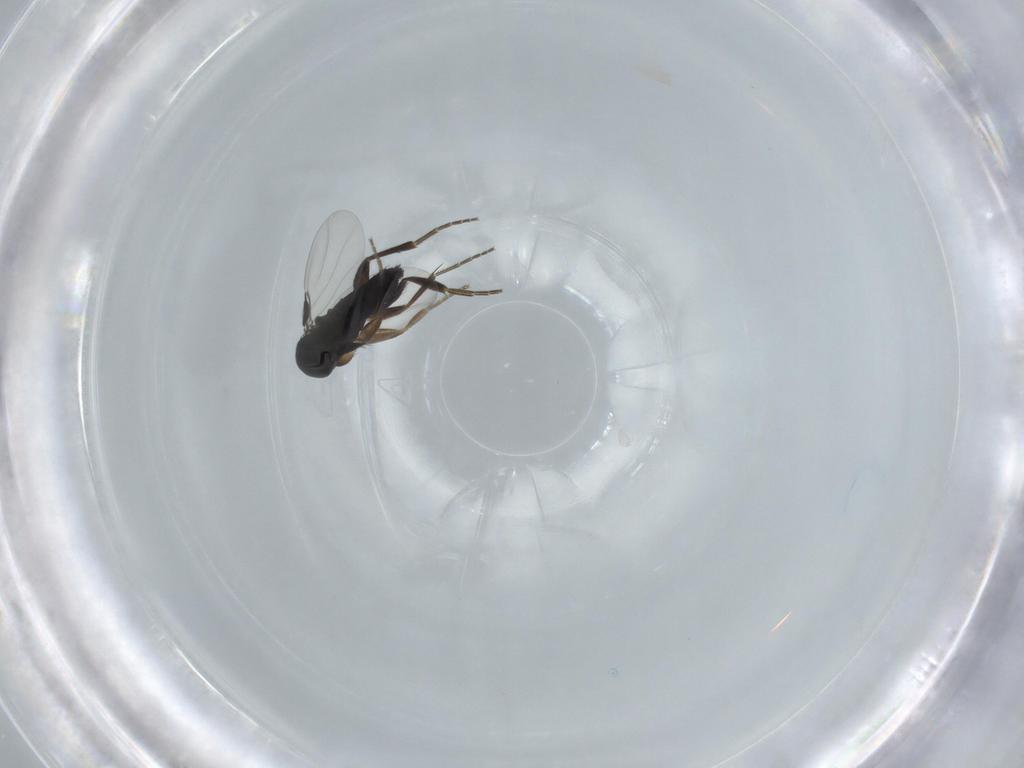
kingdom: Animalia
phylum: Arthropoda
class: Insecta
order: Diptera
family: Phoridae
